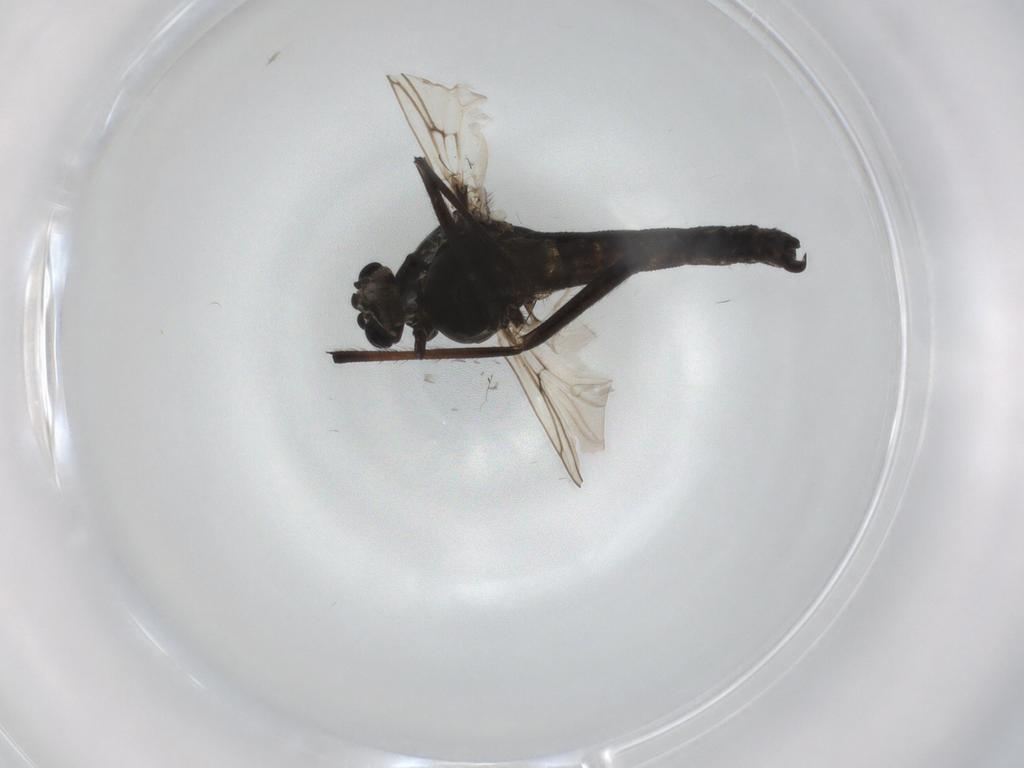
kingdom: Animalia
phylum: Arthropoda
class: Insecta
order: Diptera
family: Chironomidae
